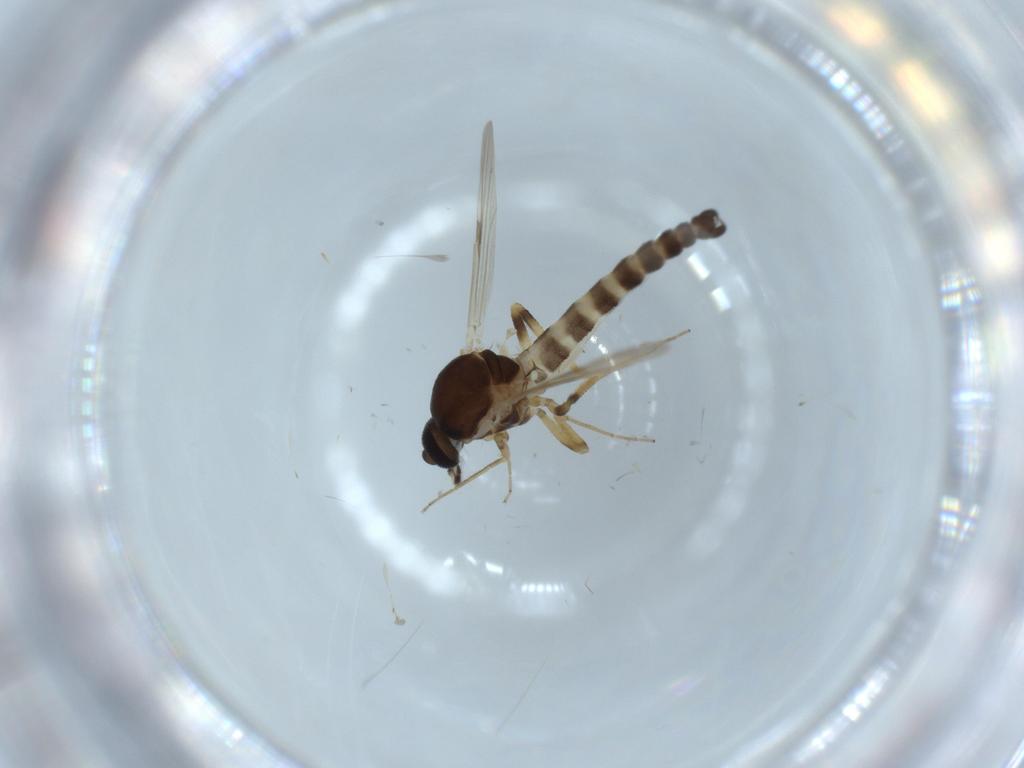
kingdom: Animalia
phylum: Arthropoda
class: Insecta
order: Diptera
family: Ceratopogonidae
